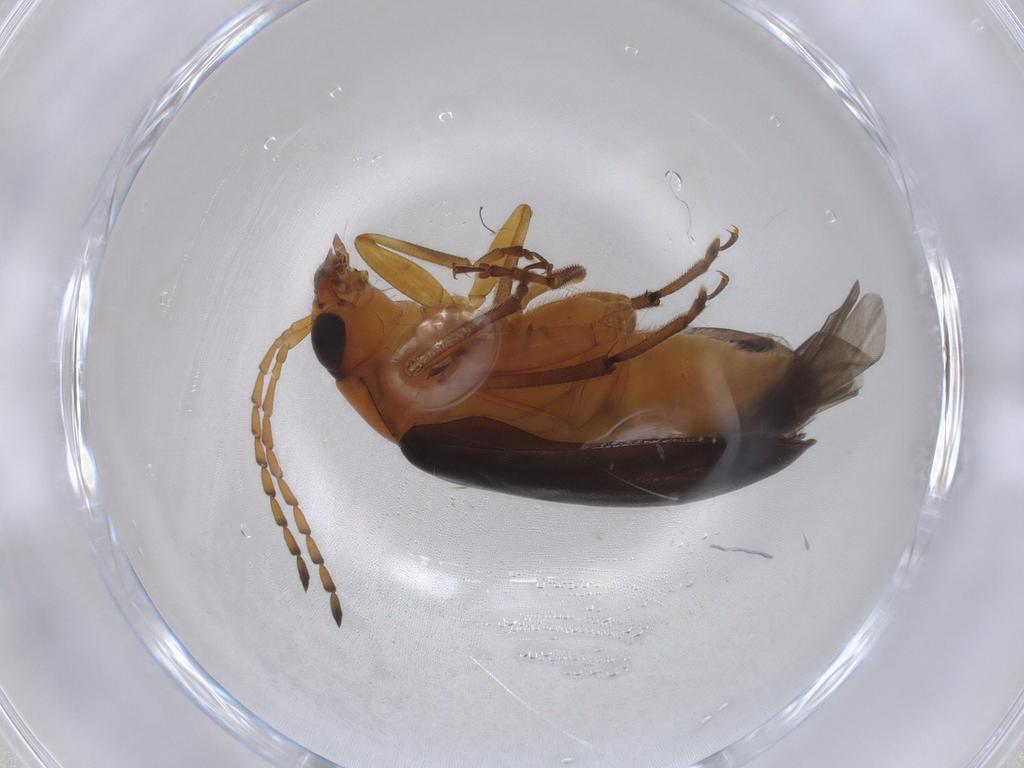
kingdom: Animalia
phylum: Arthropoda
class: Insecta
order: Coleoptera
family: Chrysomelidae
